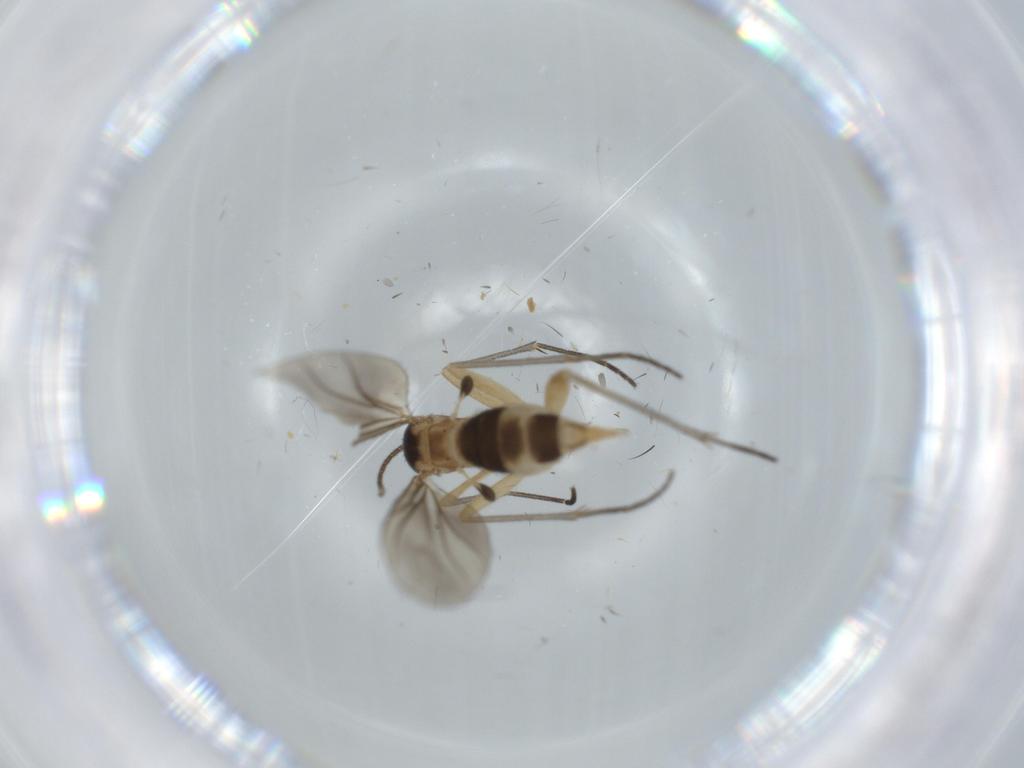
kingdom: Animalia
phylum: Arthropoda
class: Insecta
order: Diptera
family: Sciaridae
